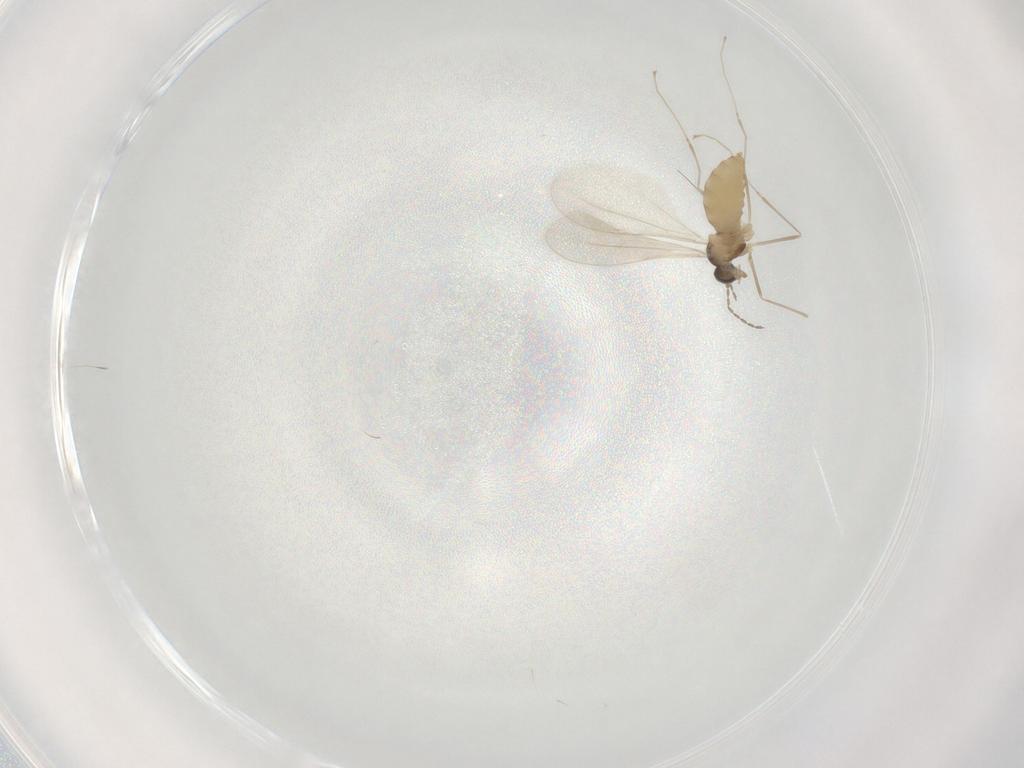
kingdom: Animalia
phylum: Arthropoda
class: Insecta
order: Diptera
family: Cecidomyiidae
